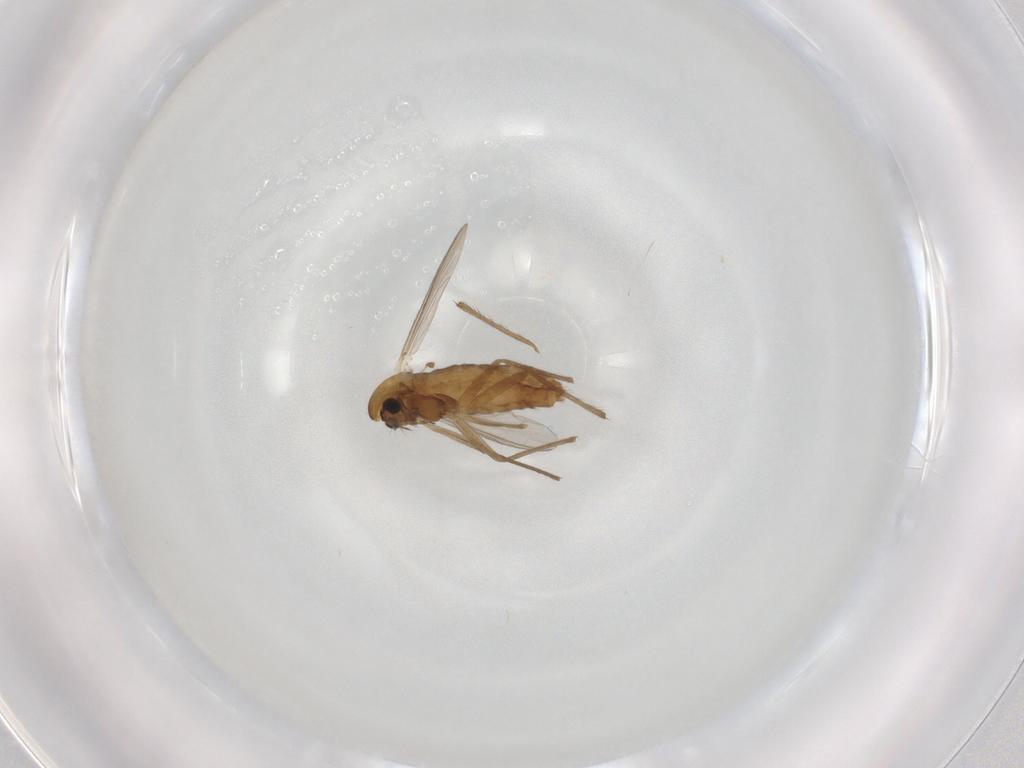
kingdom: Animalia
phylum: Arthropoda
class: Insecta
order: Diptera
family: Chironomidae
